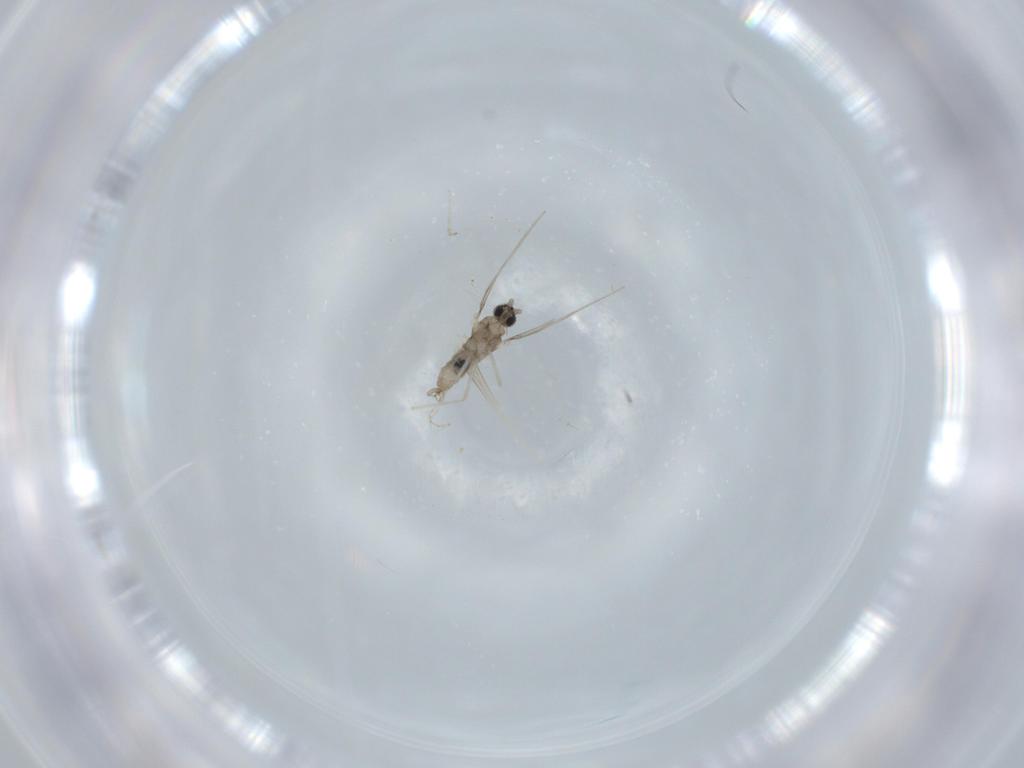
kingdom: Animalia
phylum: Arthropoda
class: Insecta
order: Diptera
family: Cecidomyiidae
